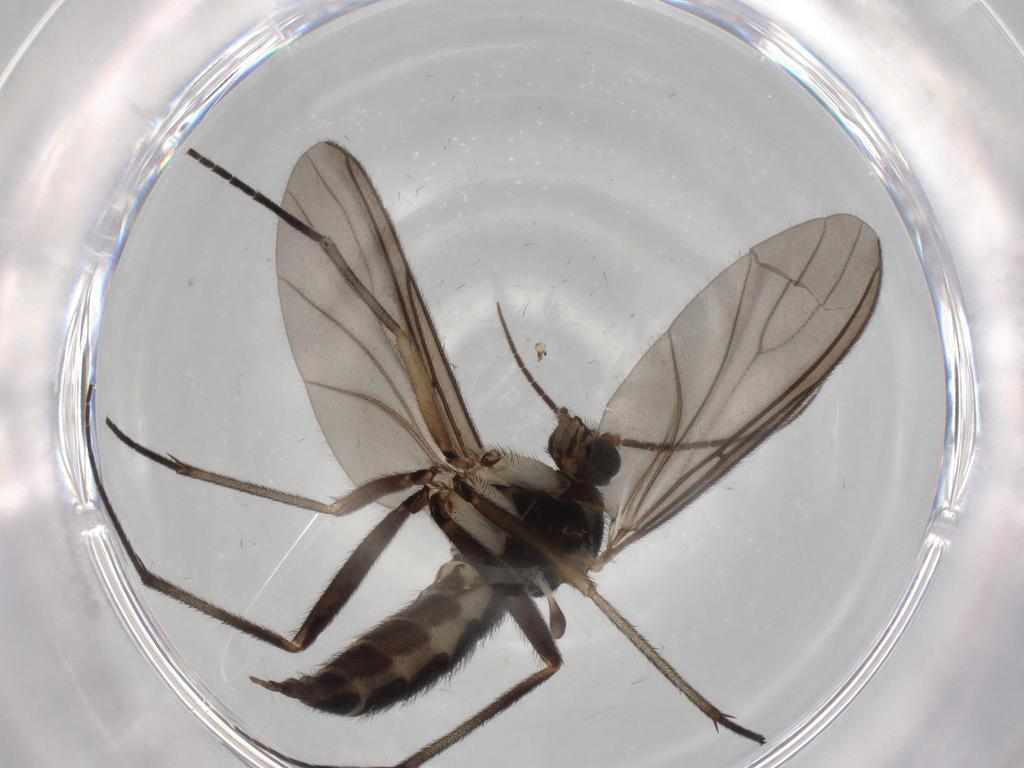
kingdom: Animalia
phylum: Arthropoda
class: Insecta
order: Diptera
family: Sciaridae
